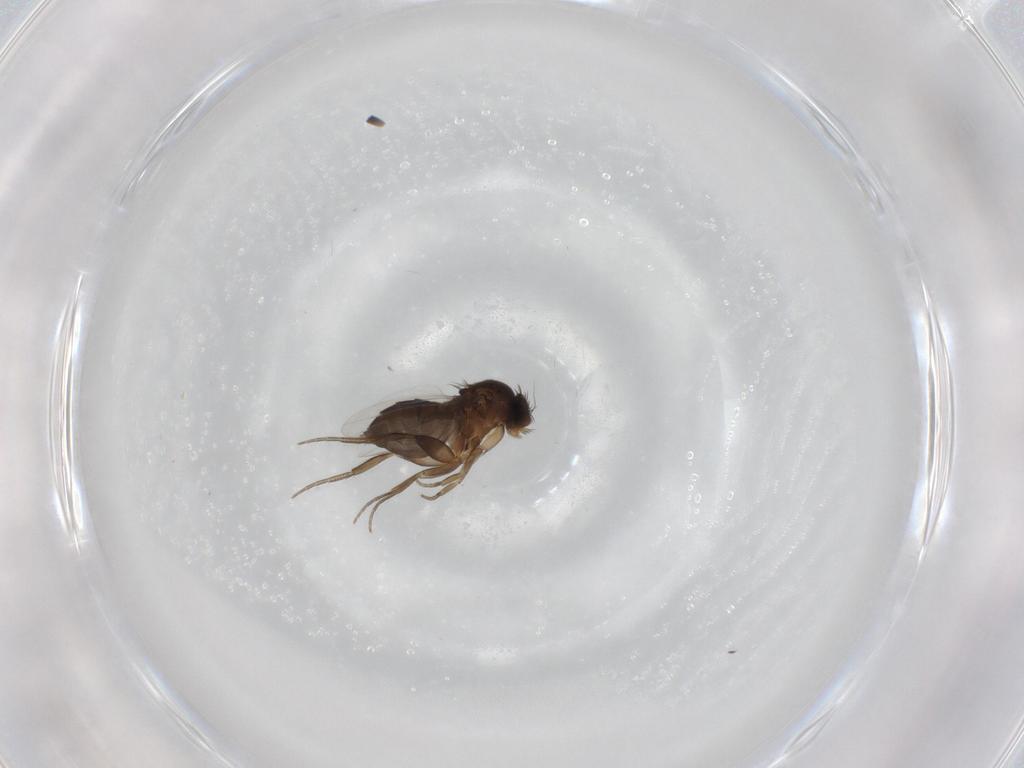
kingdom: Animalia
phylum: Arthropoda
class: Insecta
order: Diptera
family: Phoridae
